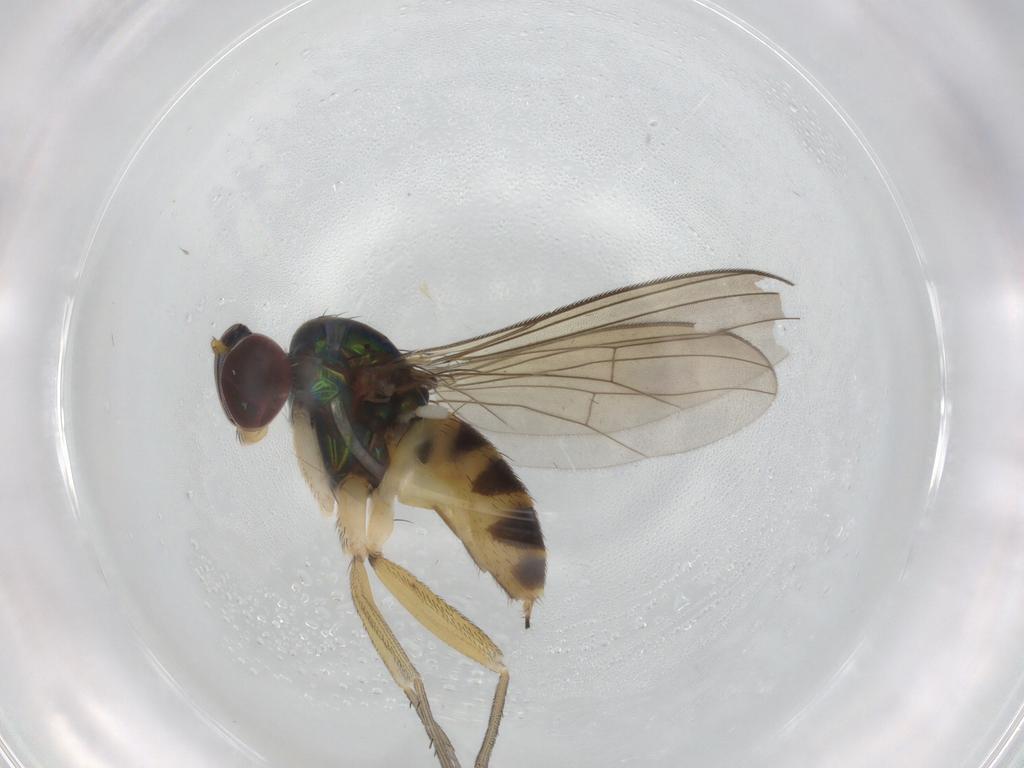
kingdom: Animalia
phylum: Arthropoda
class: Insecta
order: Diptera
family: Dolichopodidae
